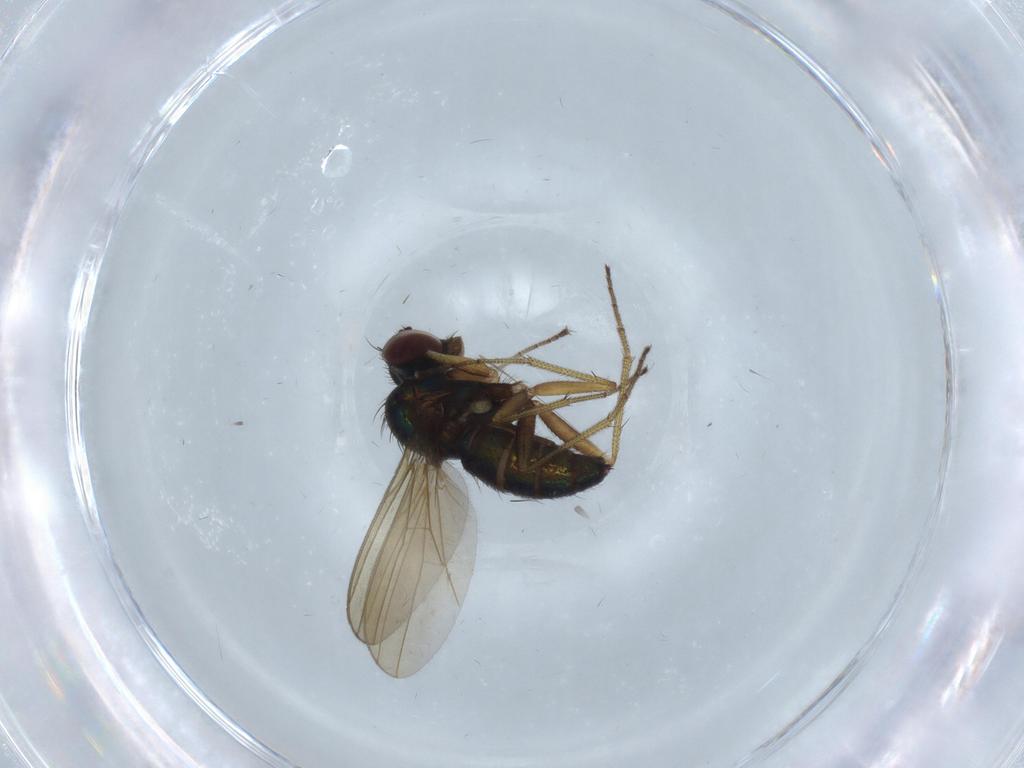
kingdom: Animalia
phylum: Arthropoda
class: Insecta
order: Diptera
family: Dolichopodidae
